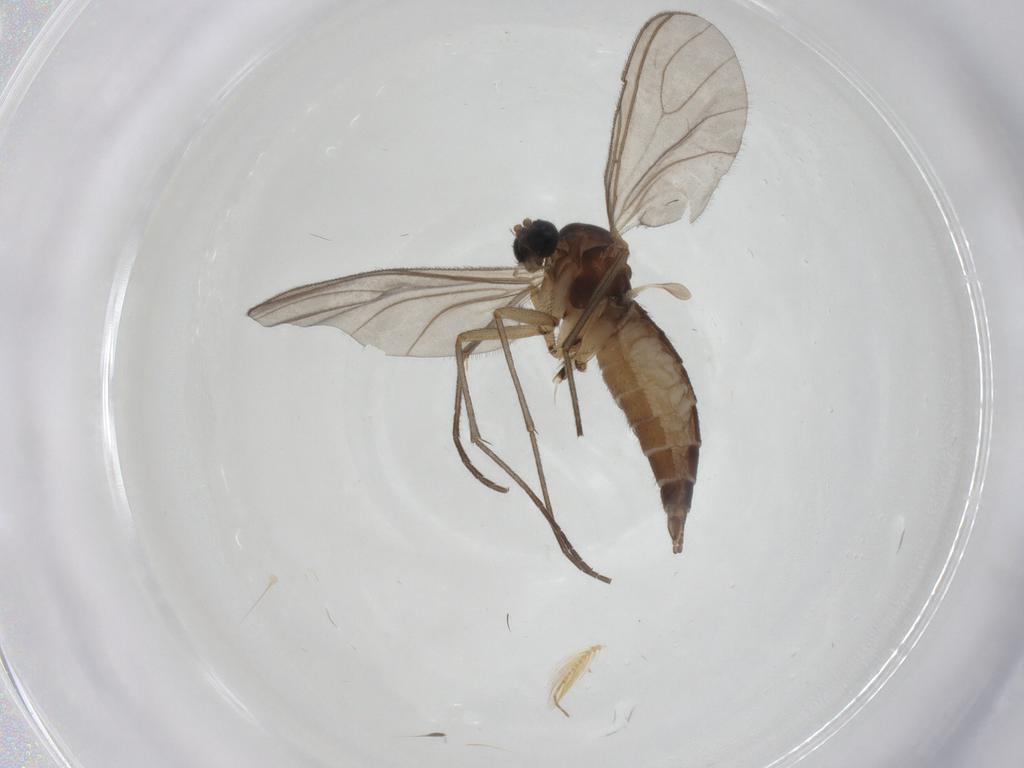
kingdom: Animalia
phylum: Arthropoda
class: Insecta
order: Diptera
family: Sciaridae
